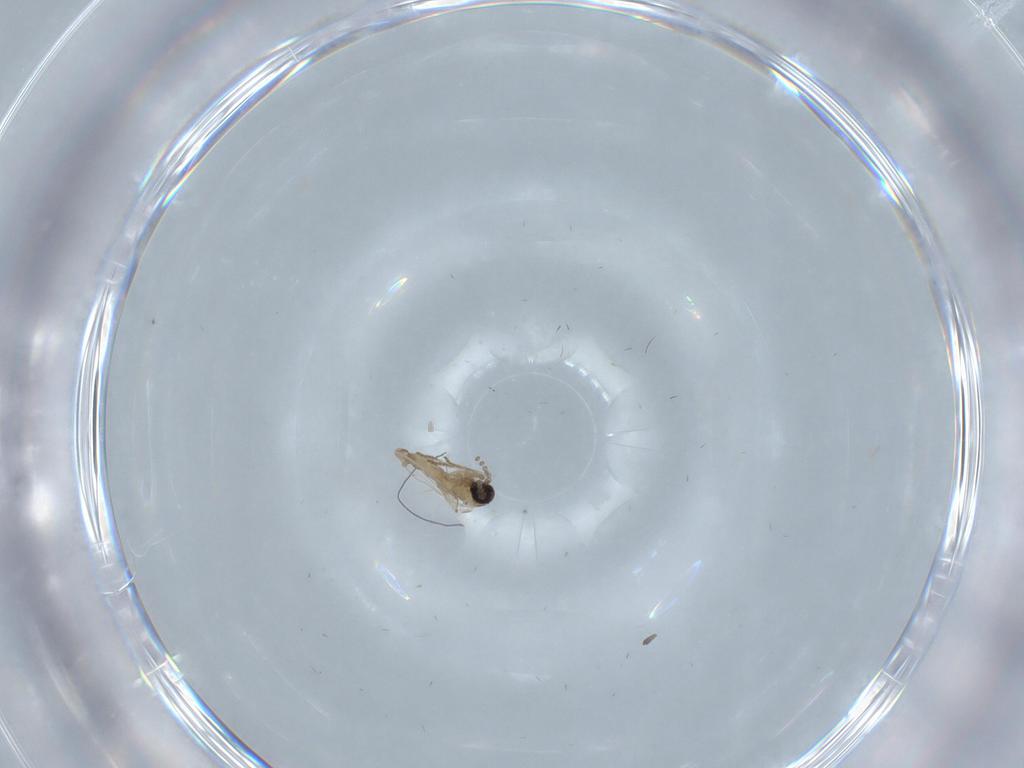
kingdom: Animalia
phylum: Arthropoda
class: Insecta
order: Diptera
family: Psychodidae
